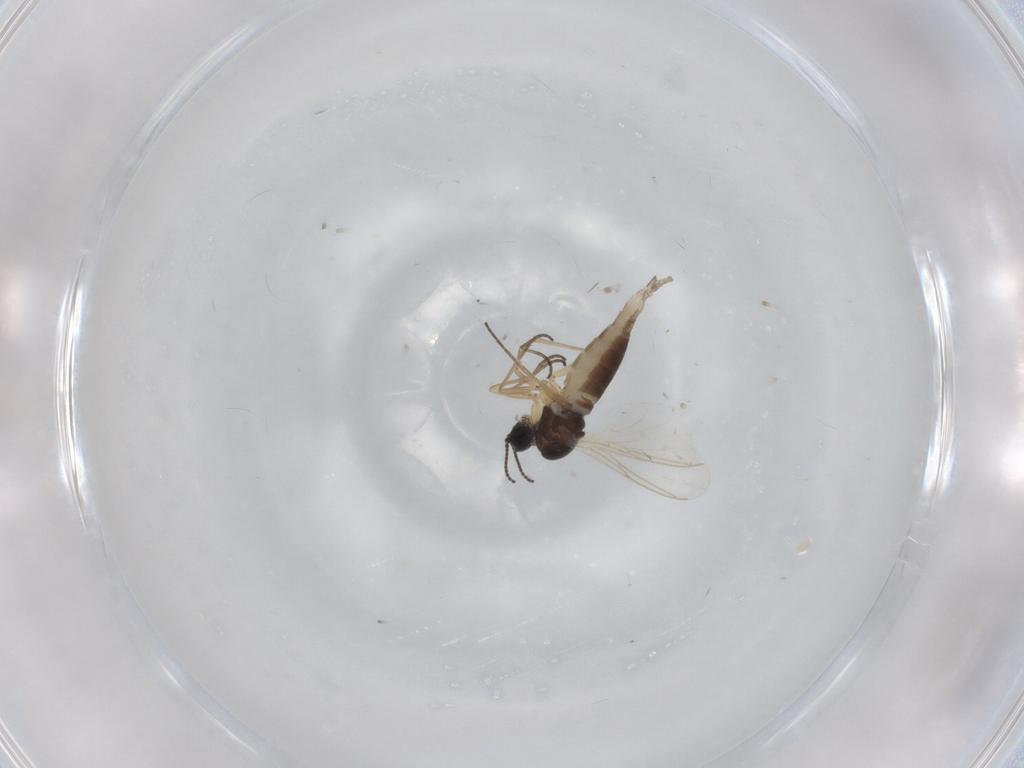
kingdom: Animalia
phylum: Arthropoda
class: Insecta
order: Diptera
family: Sciaridae
